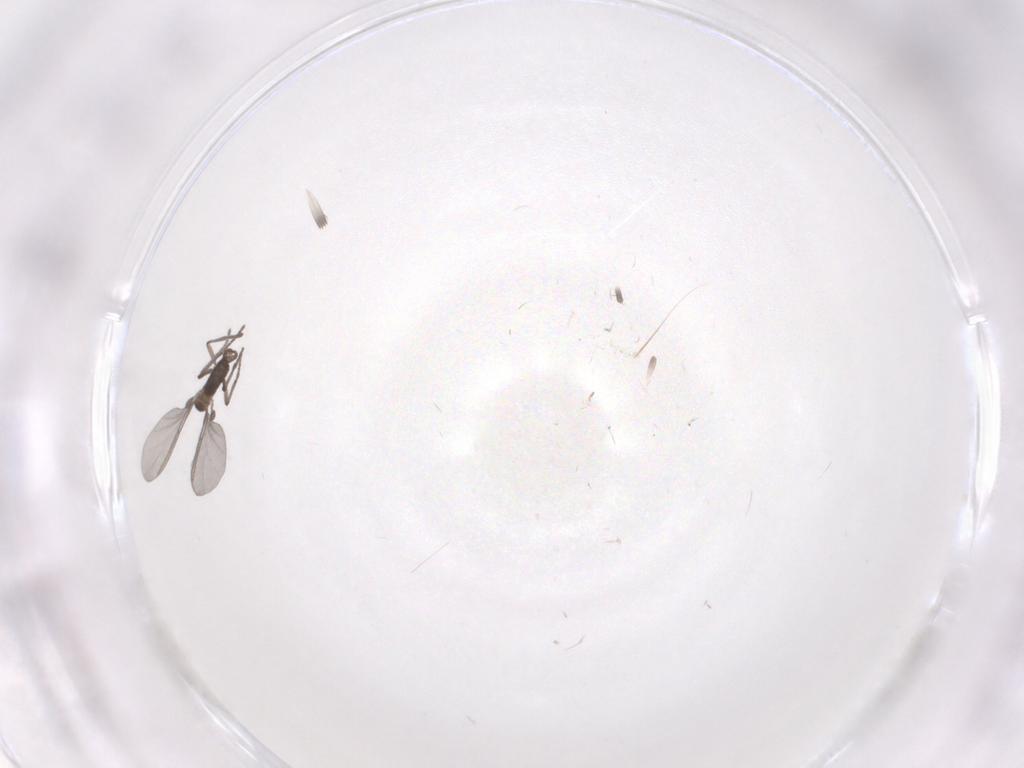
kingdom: Animalia
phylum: Arthropoda
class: Insecta
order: Diptera
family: Sciaridae
